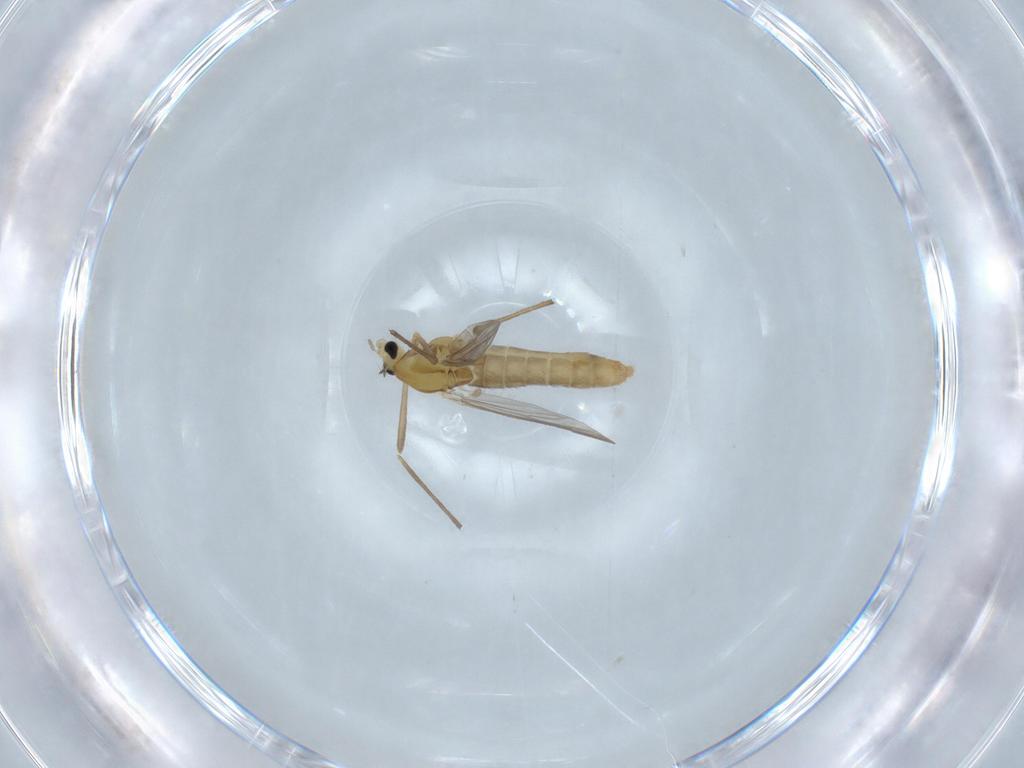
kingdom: Animalia
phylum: Arthropoda
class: Insecta
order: Diptera
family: Chironomidae
